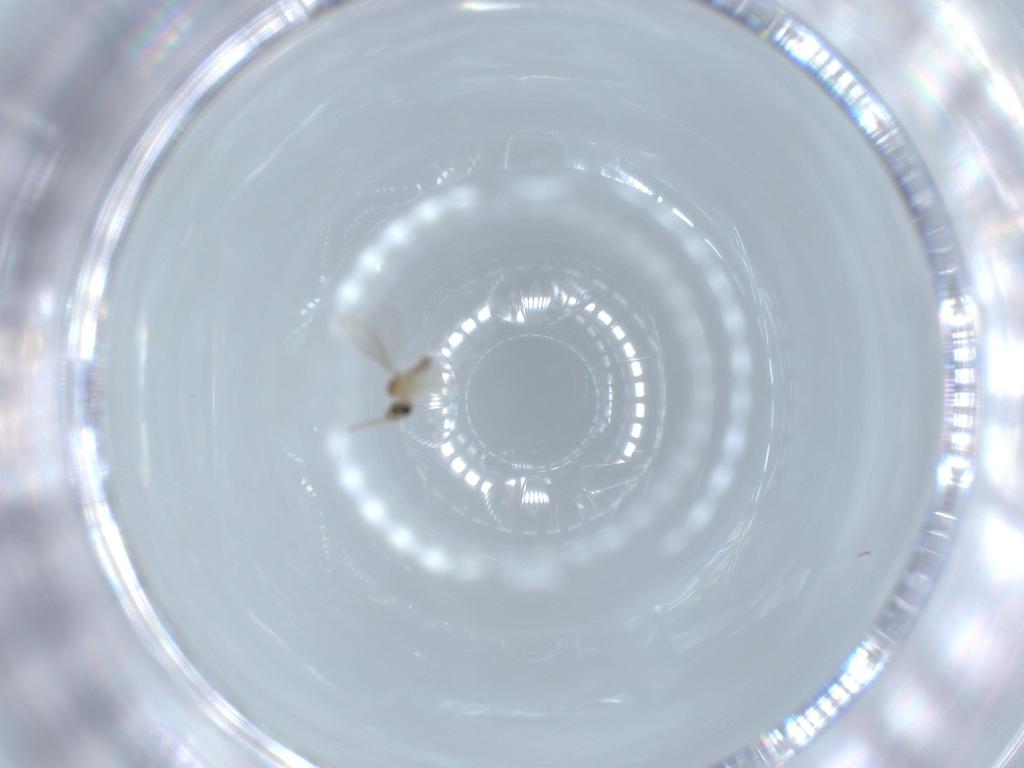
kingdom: Animalia
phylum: Arthropoda
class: Insecta
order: Diptera
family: Cecidomyiidae
